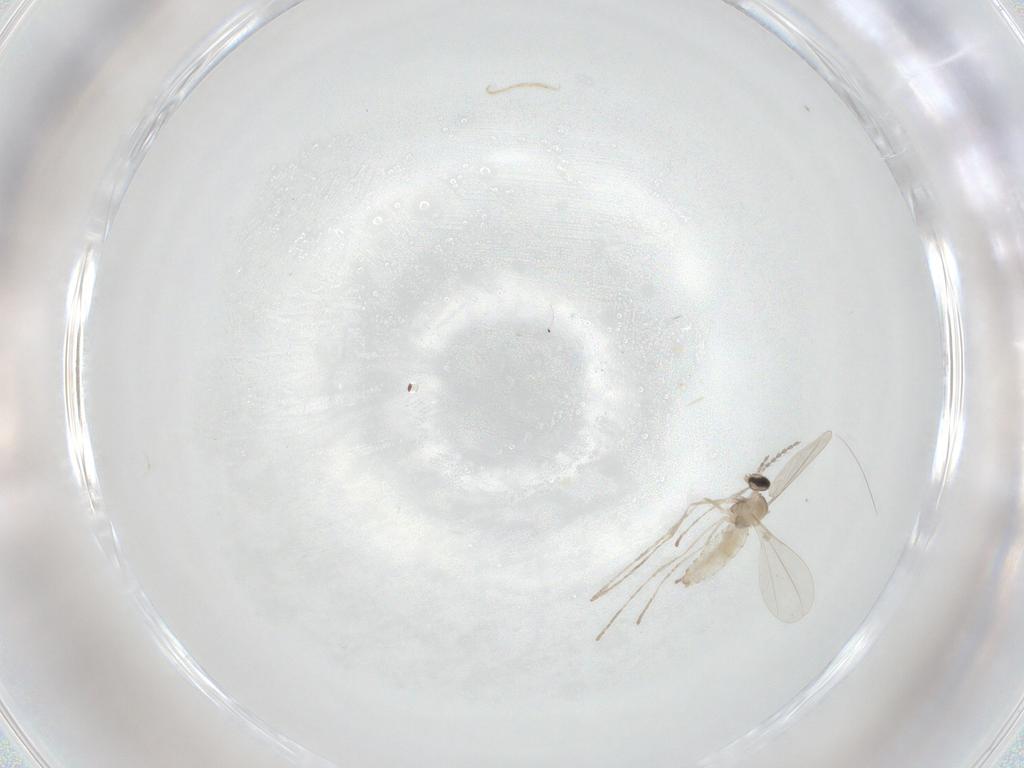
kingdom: Animalia
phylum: Arthropoda
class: Insecta
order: Diptera
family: Cecidomyiidae
